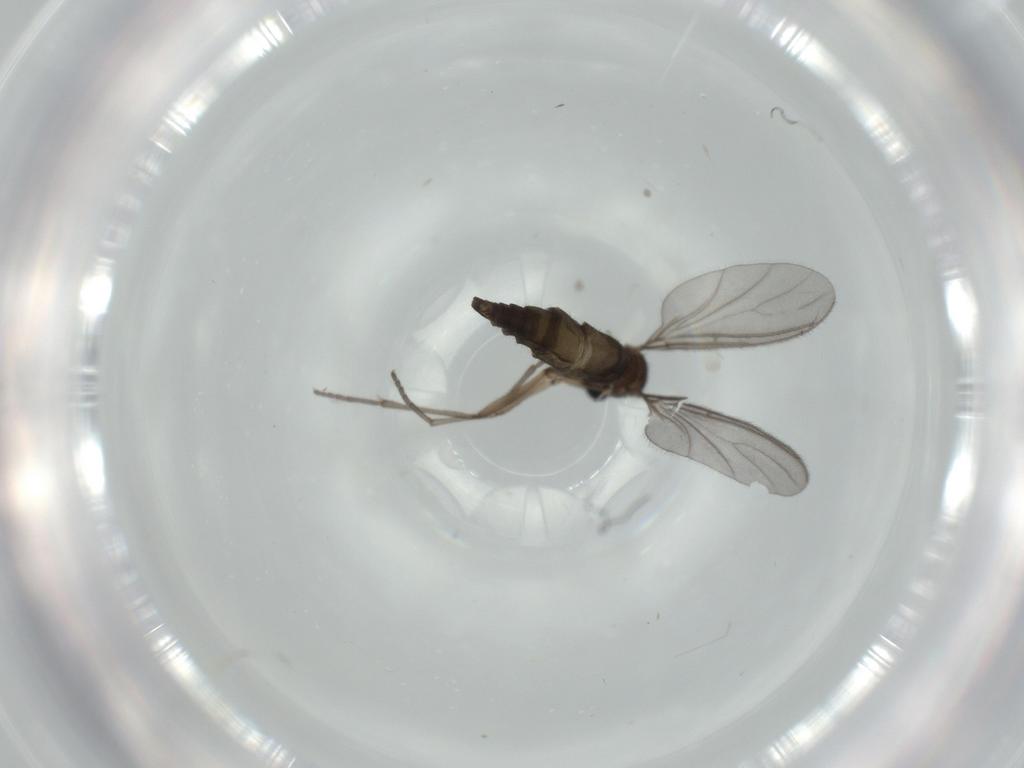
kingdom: Animalia
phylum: Arthropoda
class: Insecta
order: Diptera
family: Sciaridae
